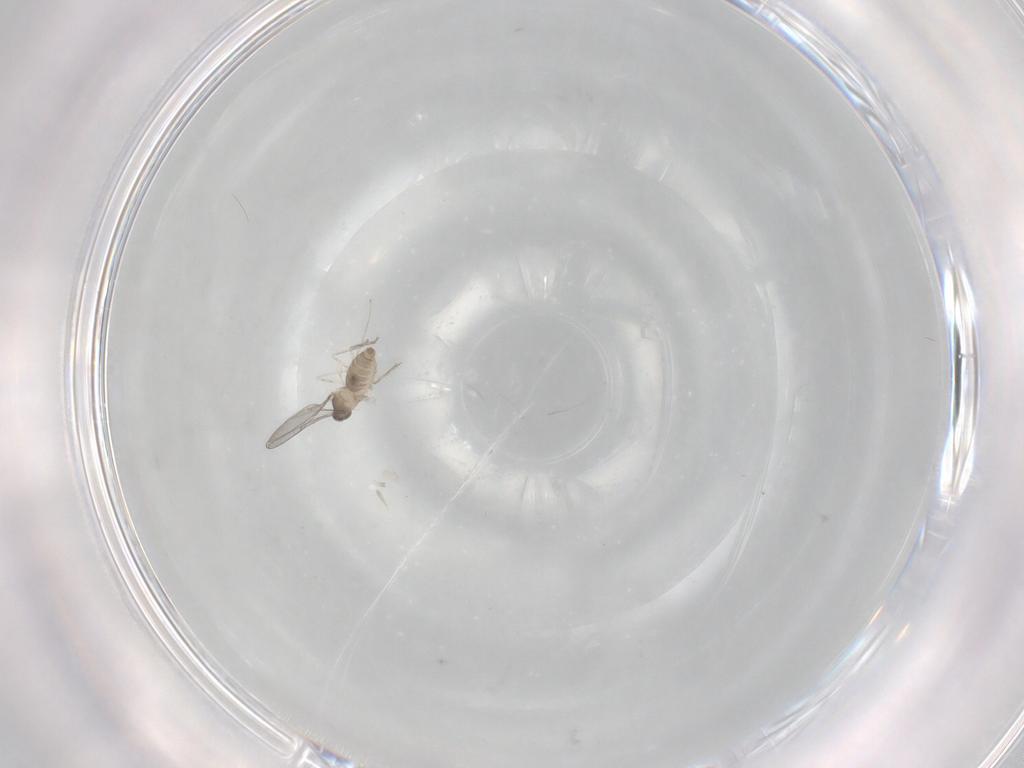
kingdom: Animalia
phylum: Arthropoda
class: Insecta
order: Diptera
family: Cecidomyiidae
